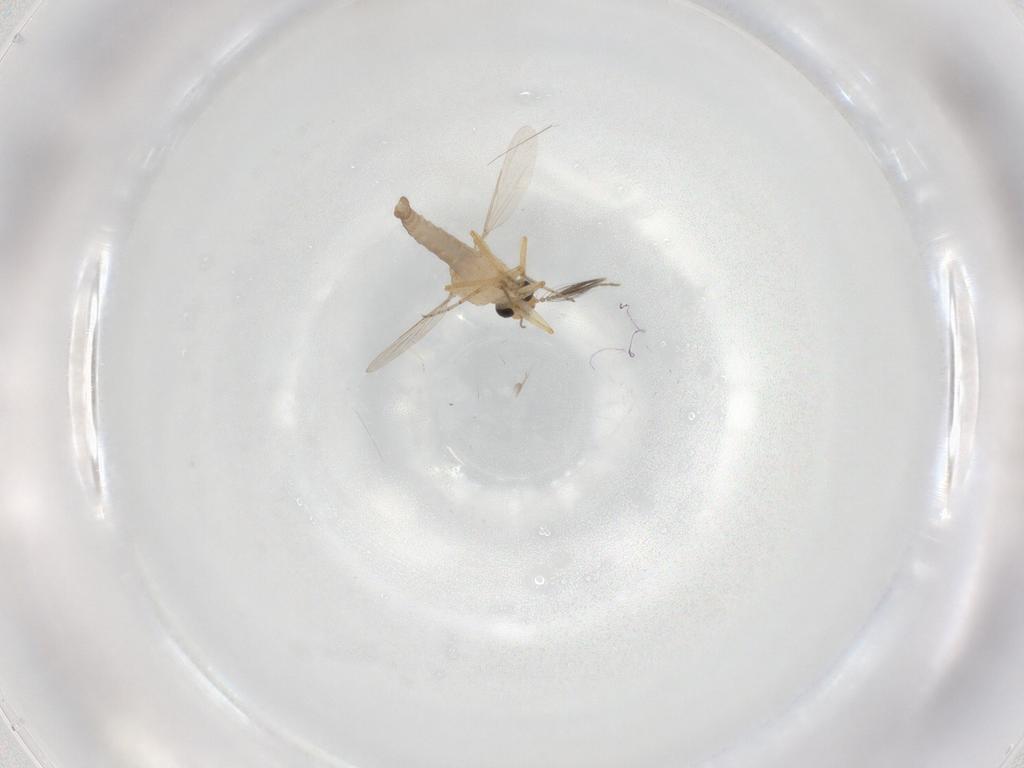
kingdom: Animalia
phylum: Arthropoda
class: Insecta
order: Diptera
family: Ceratopogonidae
